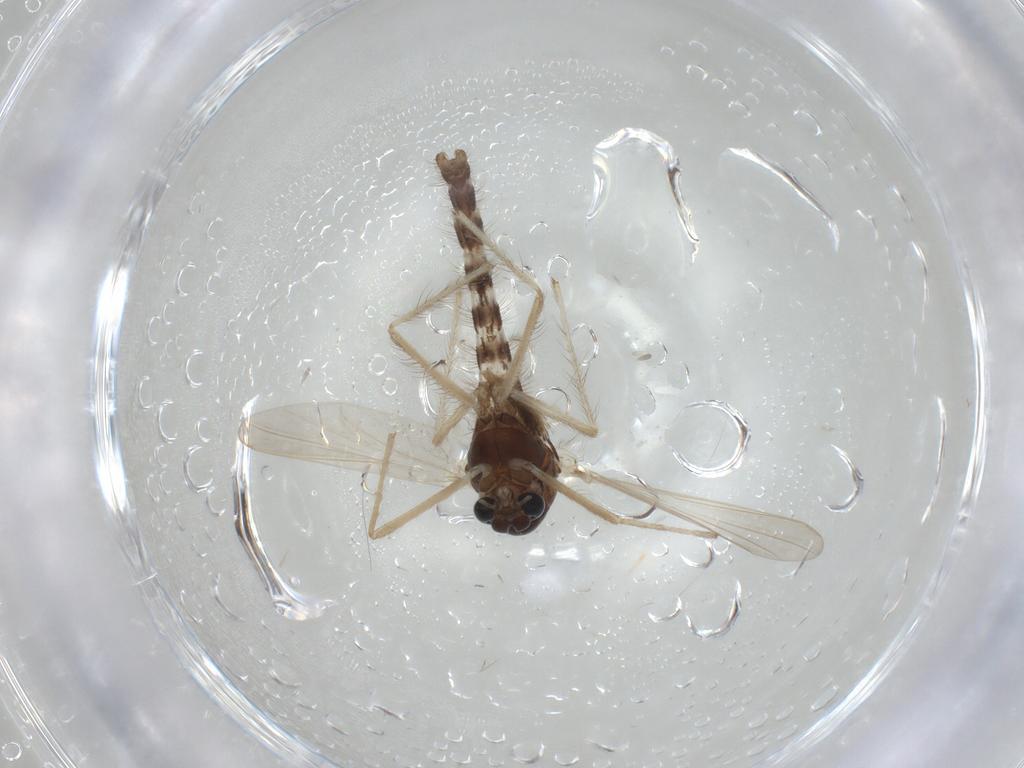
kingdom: Animalia
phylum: Arthropoda
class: Insecta
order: Diptera
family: Chironomidae
